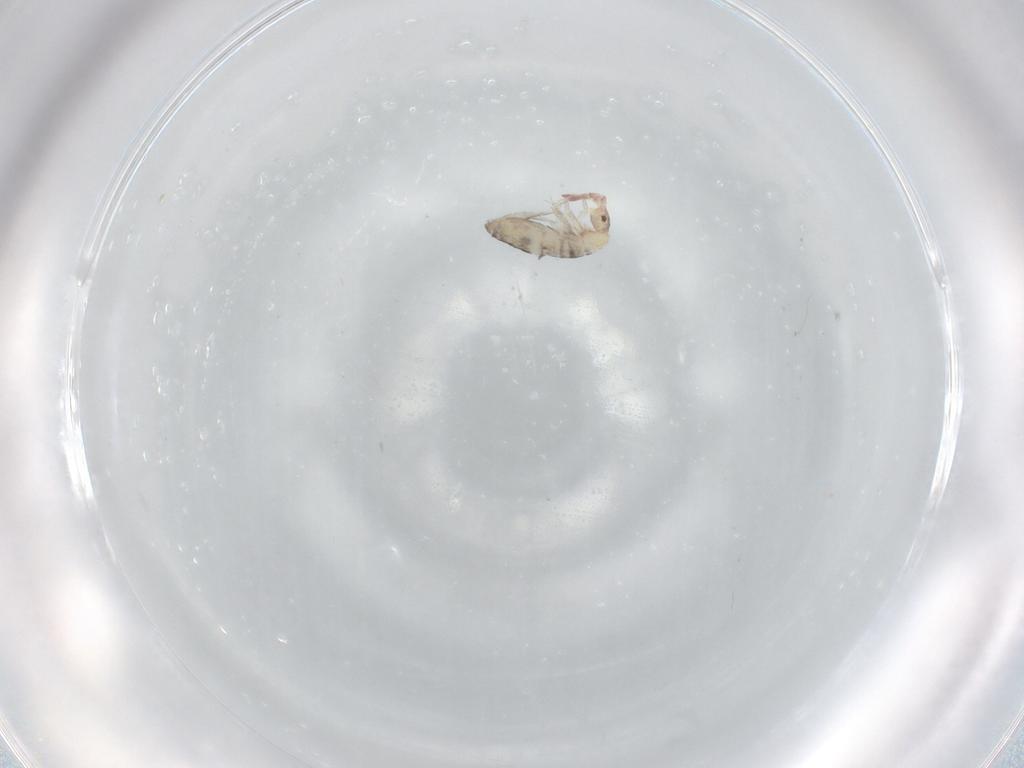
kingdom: Animalia
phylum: Arthropoda
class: Collembola
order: Entomobryomorpha
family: Entomobryidae
